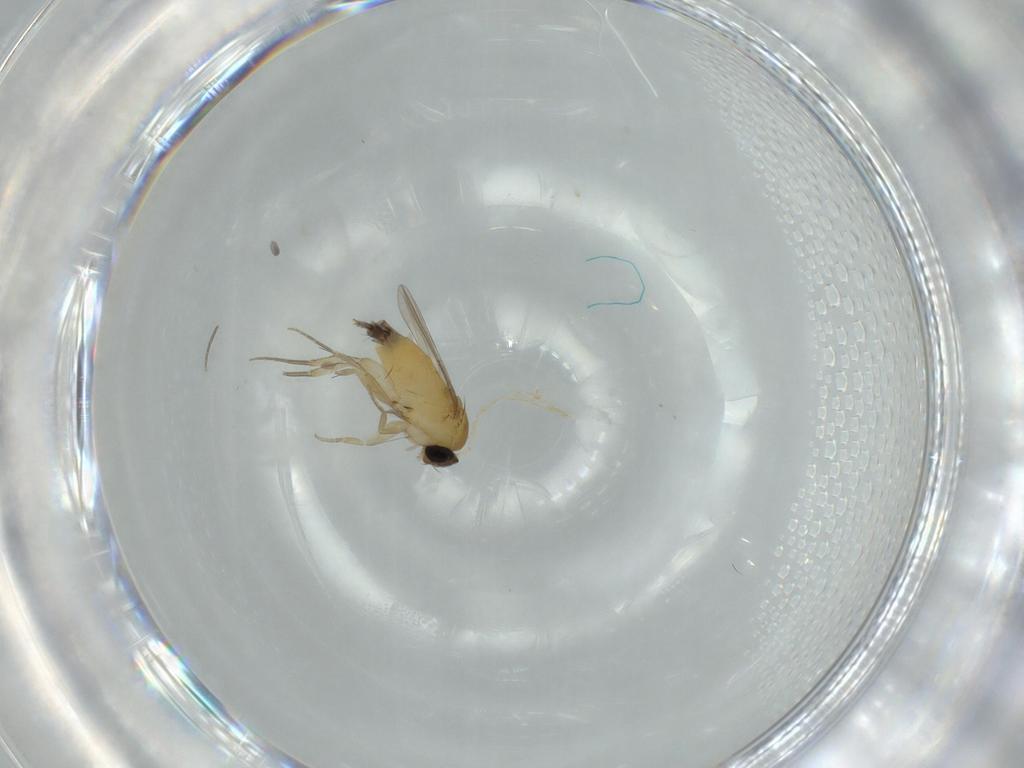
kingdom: Animalia
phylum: Arthropoda
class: Insecta
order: Diptera
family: Phoridae
